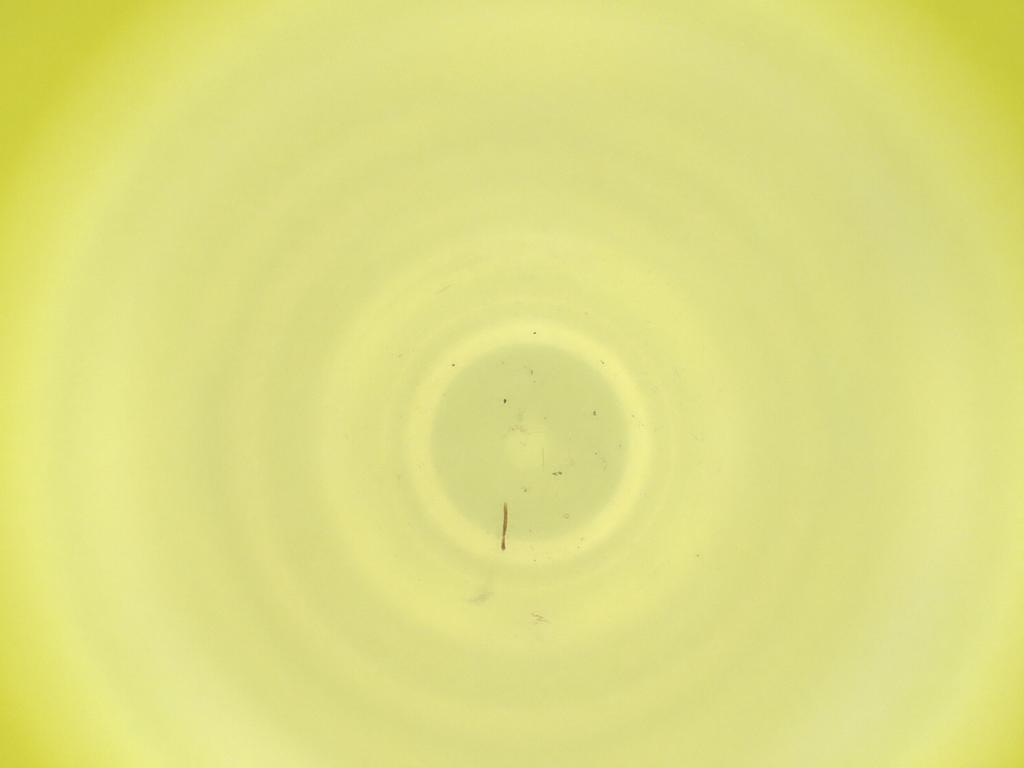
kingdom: Animalia
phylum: Arthropoda
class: Insecta
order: Diptera
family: Cecidomyiidae
